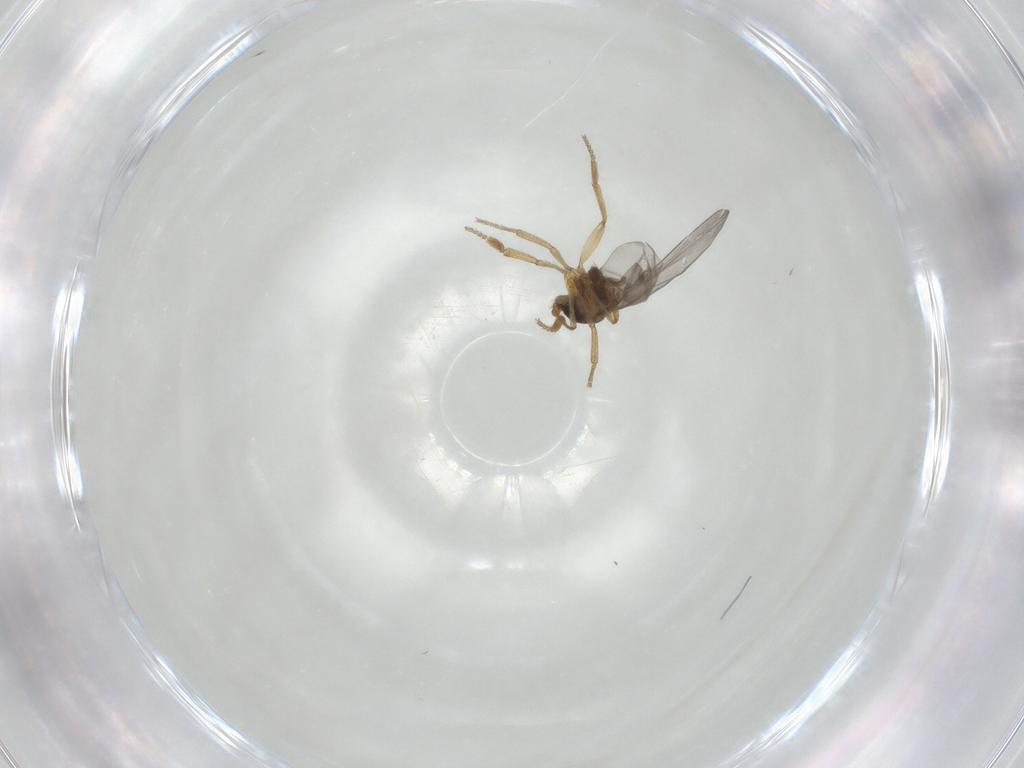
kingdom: Animalia
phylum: Arthropoda
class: Insecta
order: Diptera
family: Phoridae
